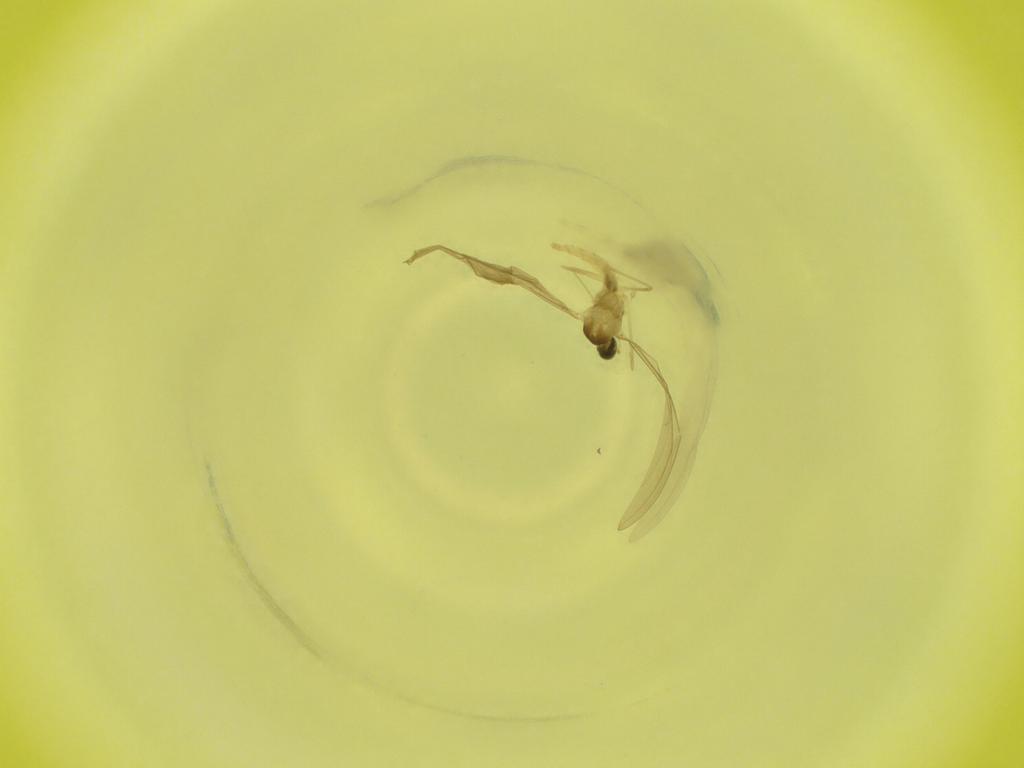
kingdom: Animalia
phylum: Arthropoda
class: Insecta
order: Diptera
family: Cecidomyiidae
